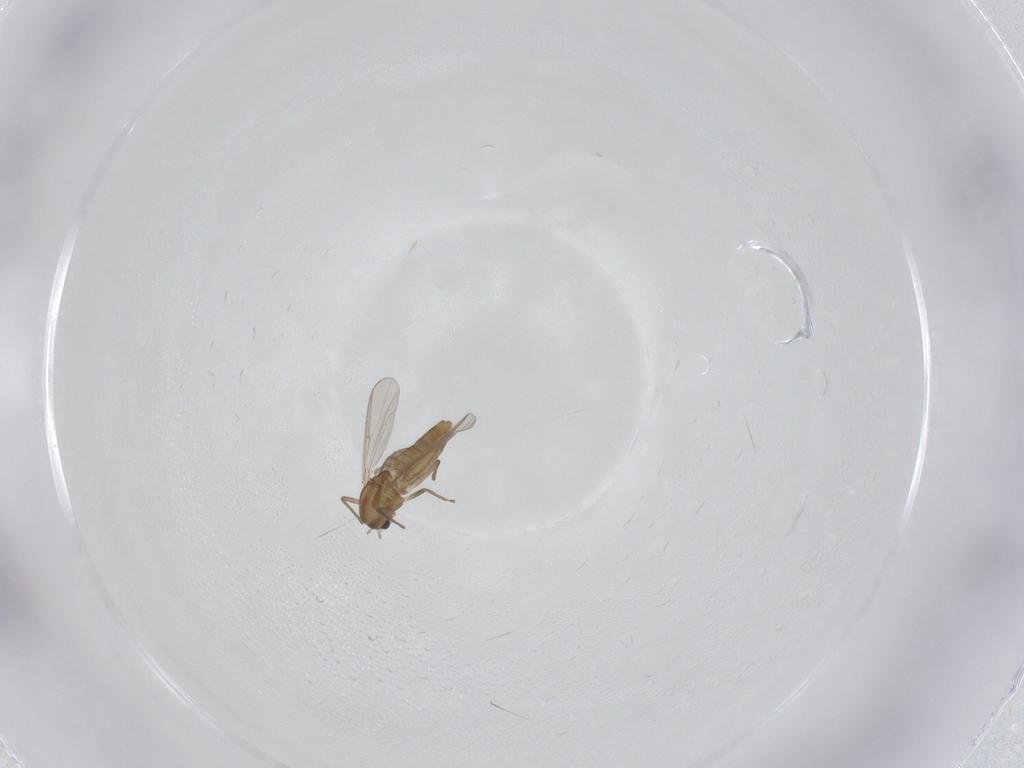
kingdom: Animalia
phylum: Arthropoda
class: Insecta
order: Diptera
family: Chironomidae
